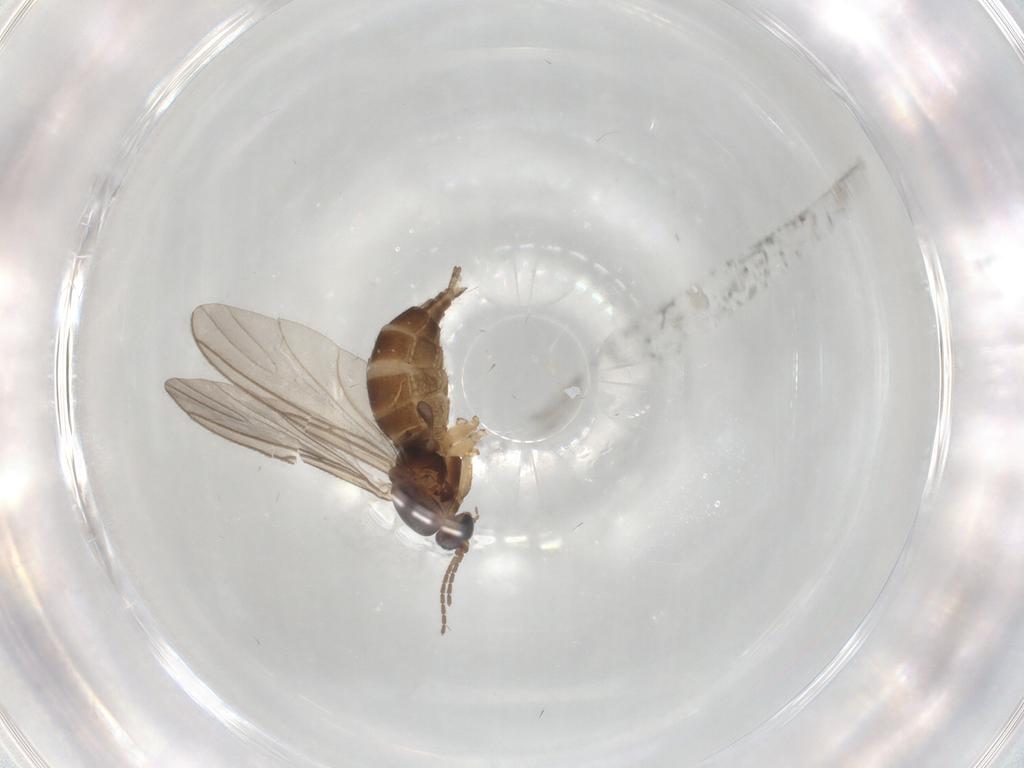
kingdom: Animalia
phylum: Arthropoda
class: Insecta
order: Diptera
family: Sciaridae
